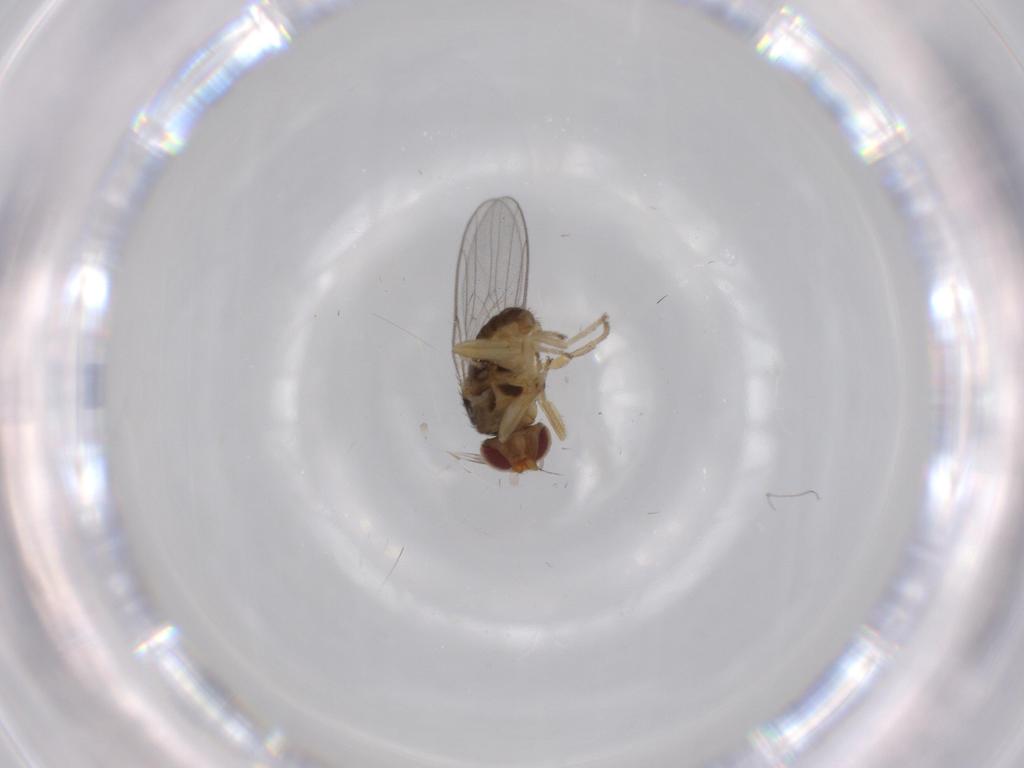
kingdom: Animalia
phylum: Arthropoda
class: Insecta
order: Diptera
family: Chloropidae
